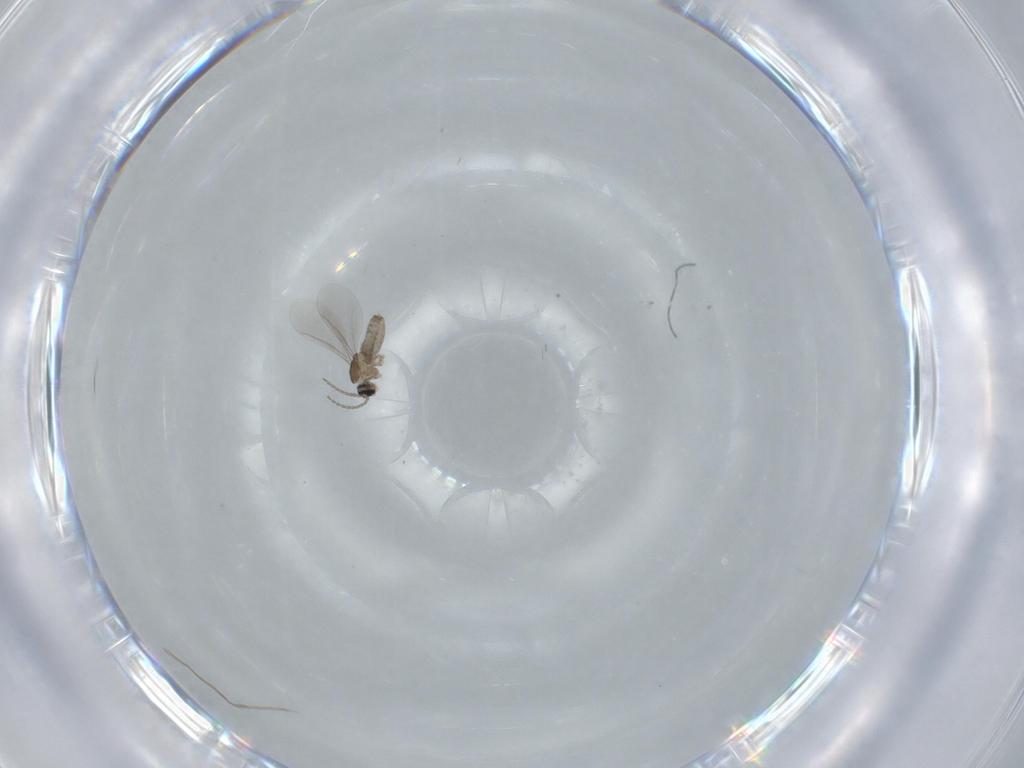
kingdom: Animalia
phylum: Arthropoda
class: Insecta
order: Diptera
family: Cecidomyiidae
